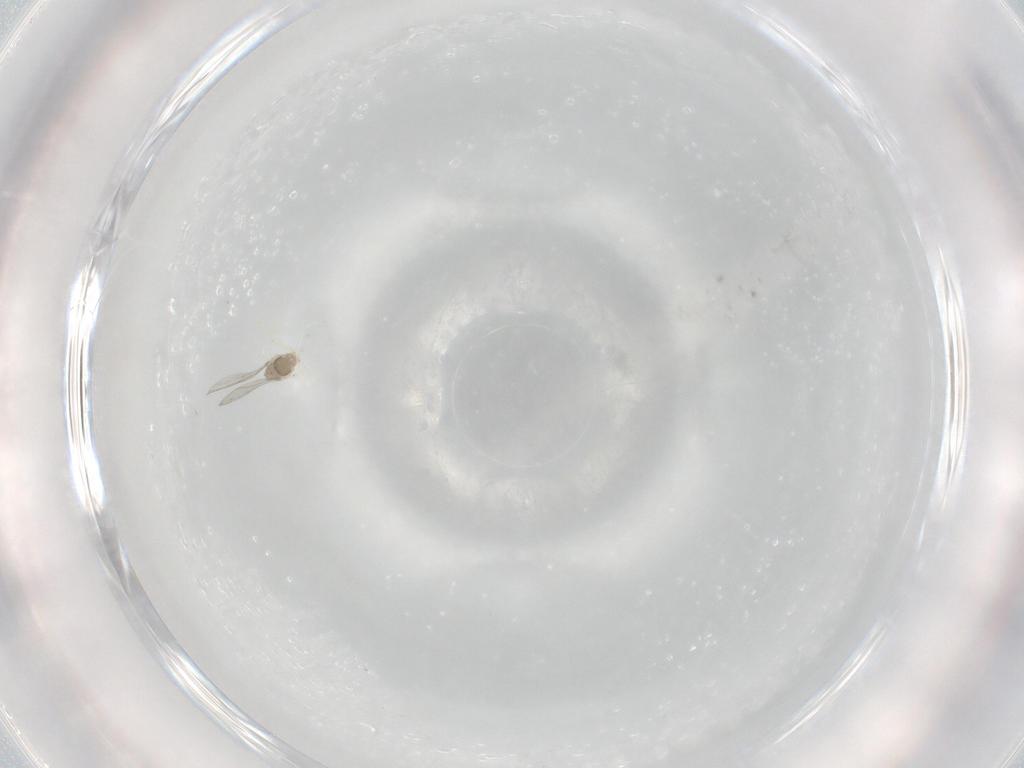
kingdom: Animalia
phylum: Arthropoda
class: Insecta
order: Diptera
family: Cecidomyiidae
